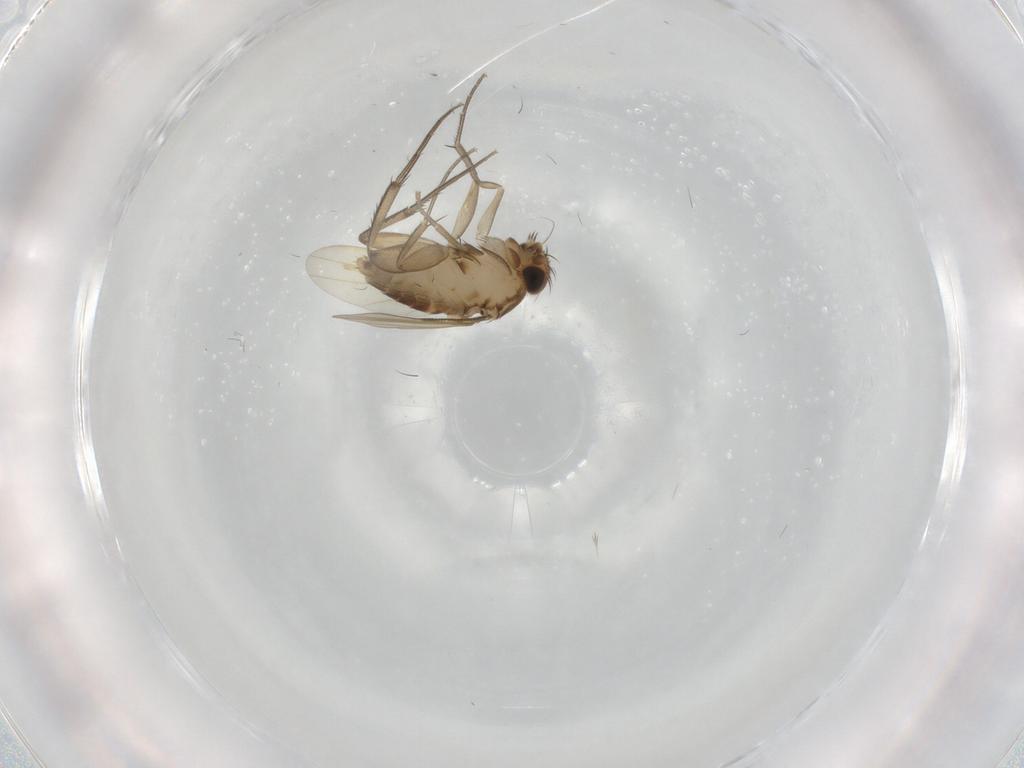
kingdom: Animalia
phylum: Arthropoda
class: Insecta
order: Diptera
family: Phoridae
